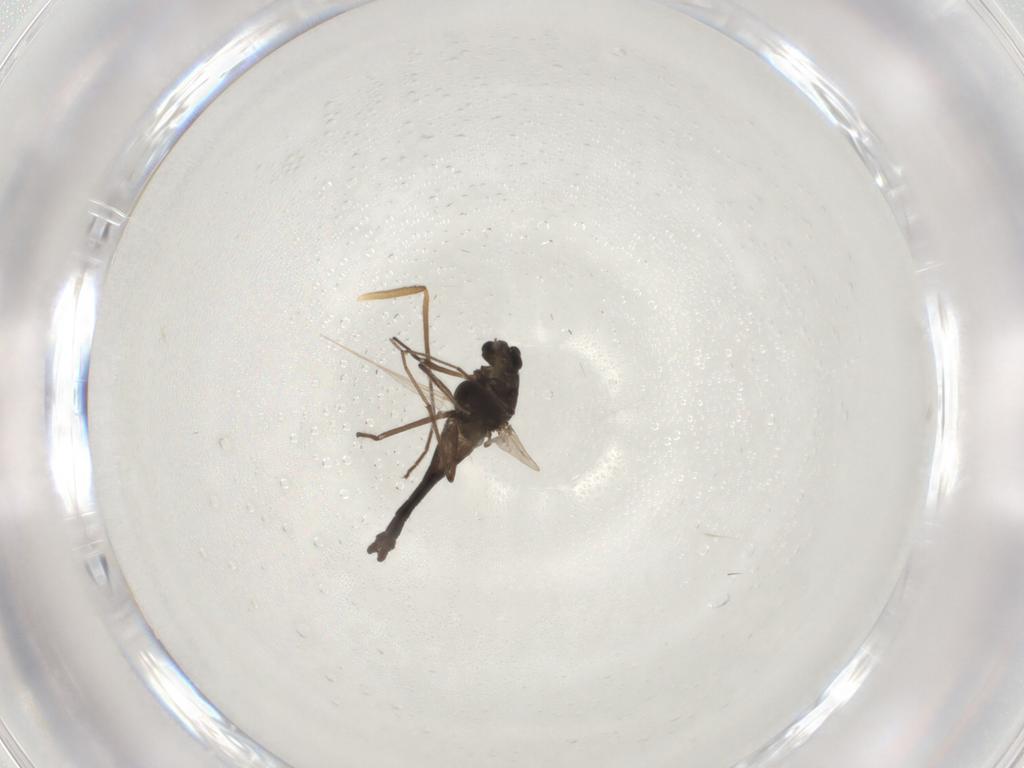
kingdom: Animalia
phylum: Arthropoda
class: Insecta
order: Diptera
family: Chironomidae
